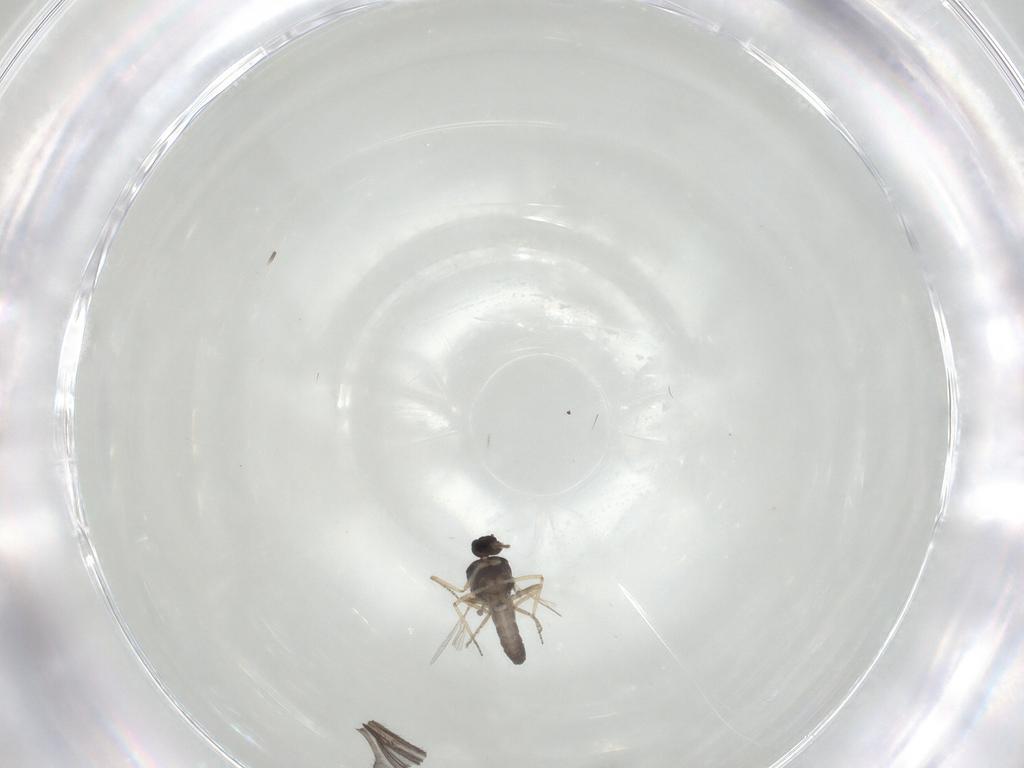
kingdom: Animalia
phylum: Arthropoda
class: Insecta
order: Diptera
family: Ceratopogonidae
